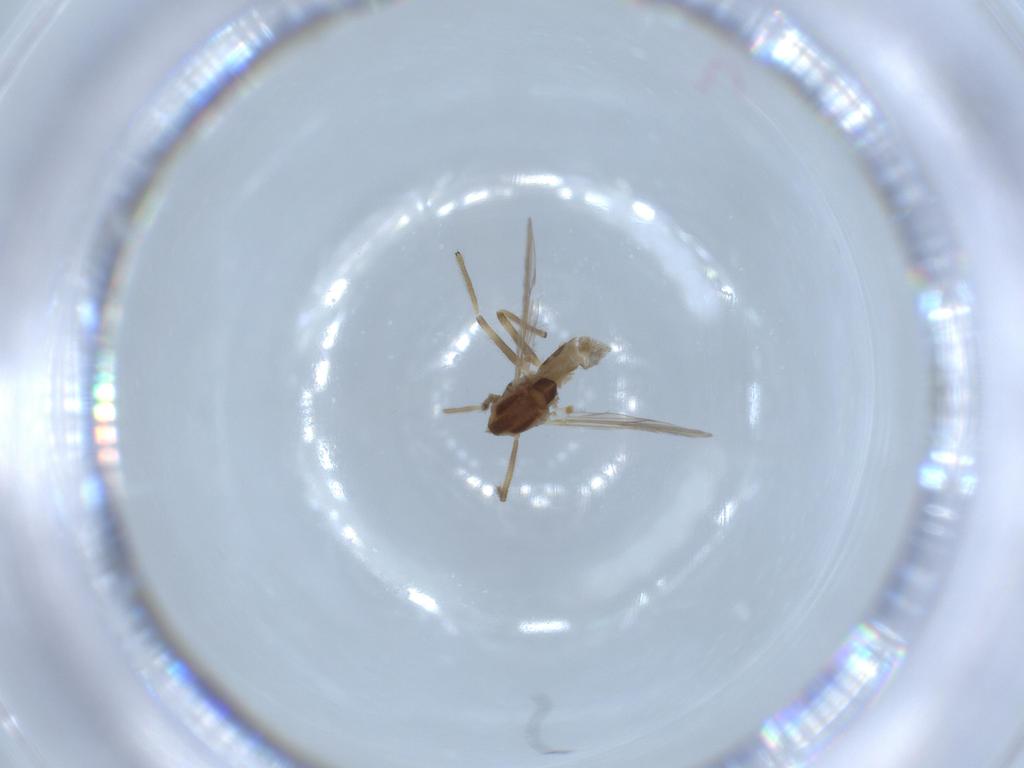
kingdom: Animalia
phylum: Arthropoda
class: Insecta
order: Diptera
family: Chironomidae
